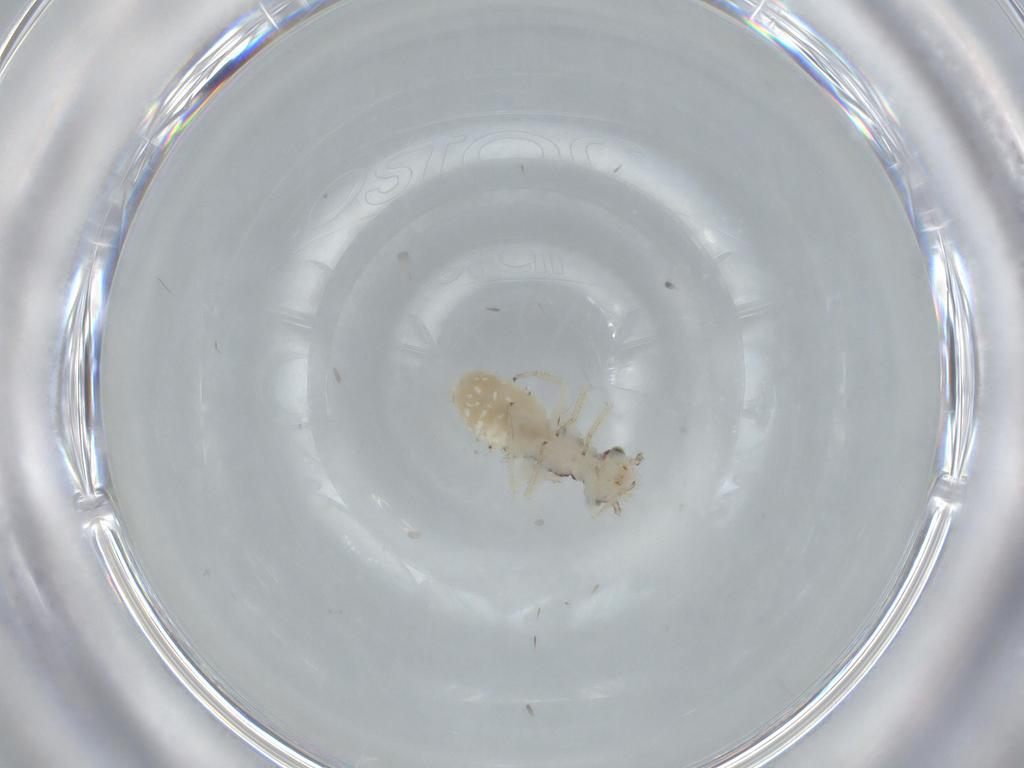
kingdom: Animalia
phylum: Arthropoda
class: Insecta
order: Psocodea
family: Pseudocaeciliidae
